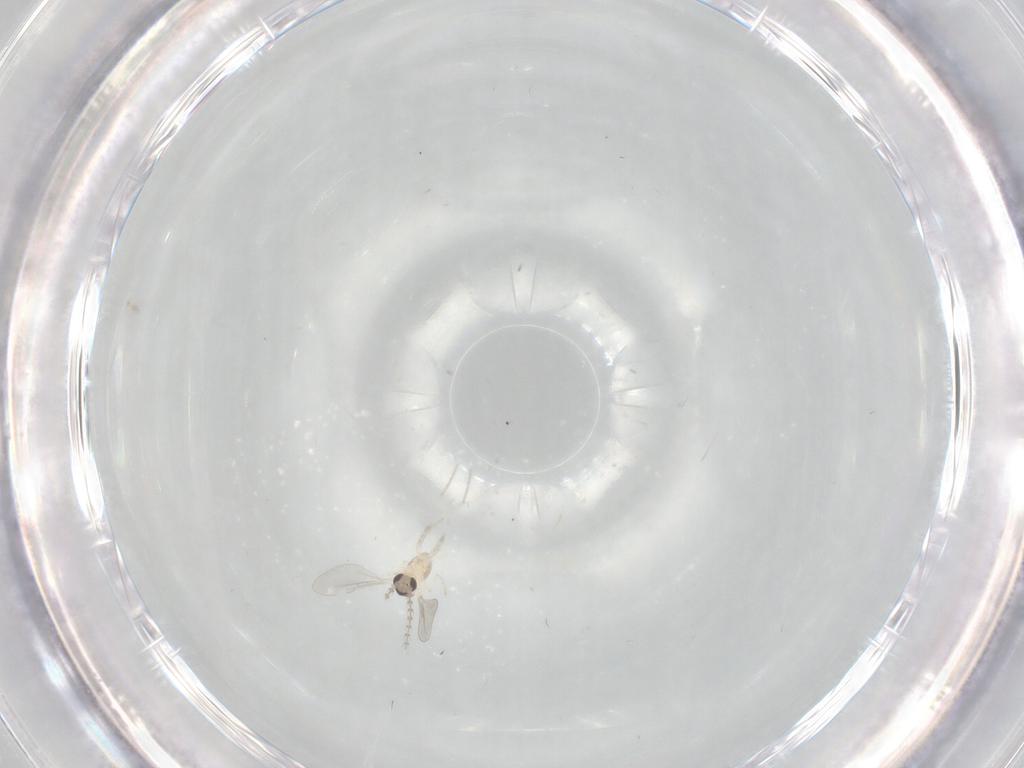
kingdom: Animalia
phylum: Arthropoda
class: Insecta
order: Diptera
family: Cecidomyiidae
